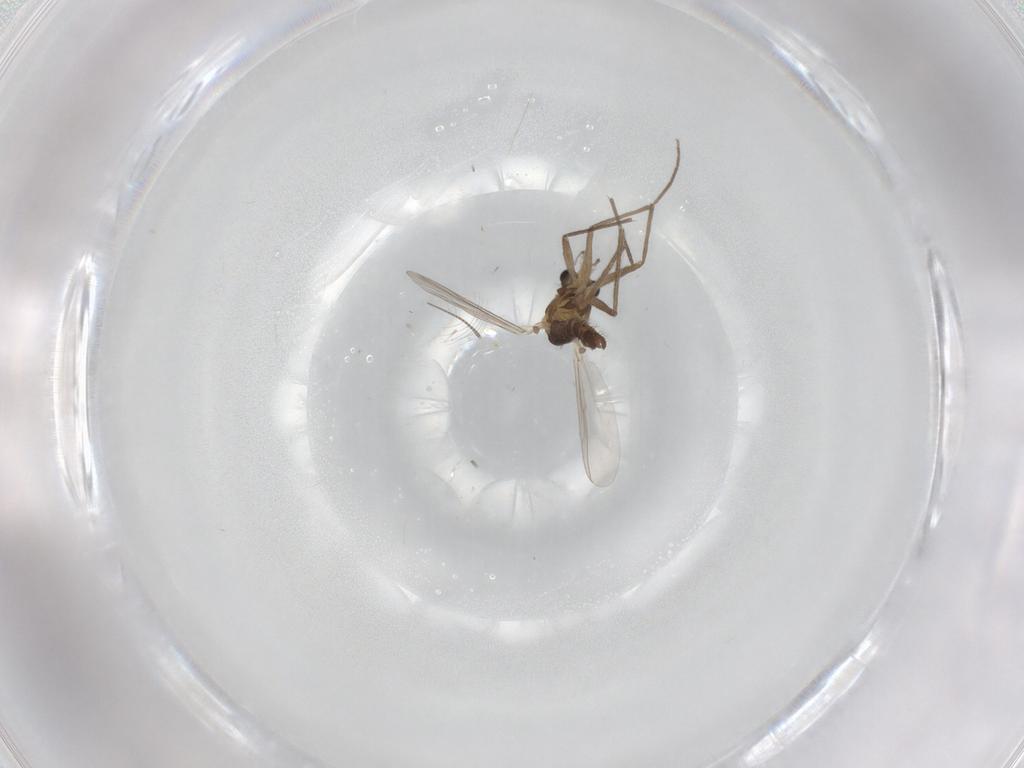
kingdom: Animalia
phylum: Arthropoda
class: Insecta
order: Diptera
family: Chironomidae
